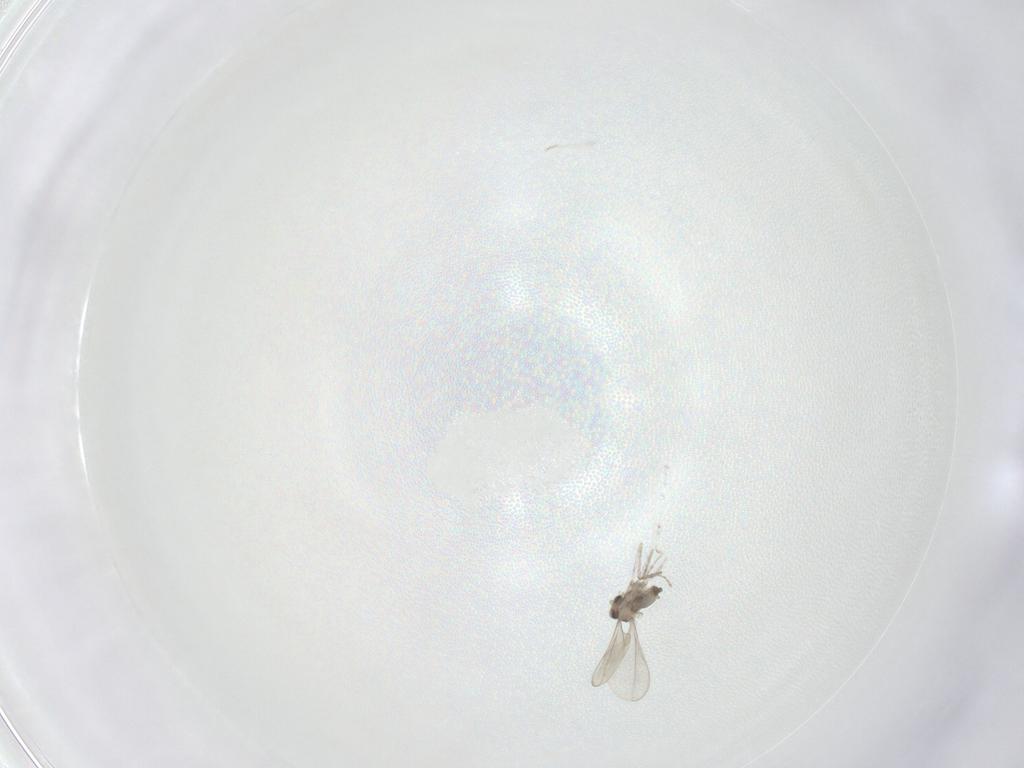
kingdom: Animalia
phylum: Arthropoda
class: Insecta
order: Diptera
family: Cecidomyiidae
